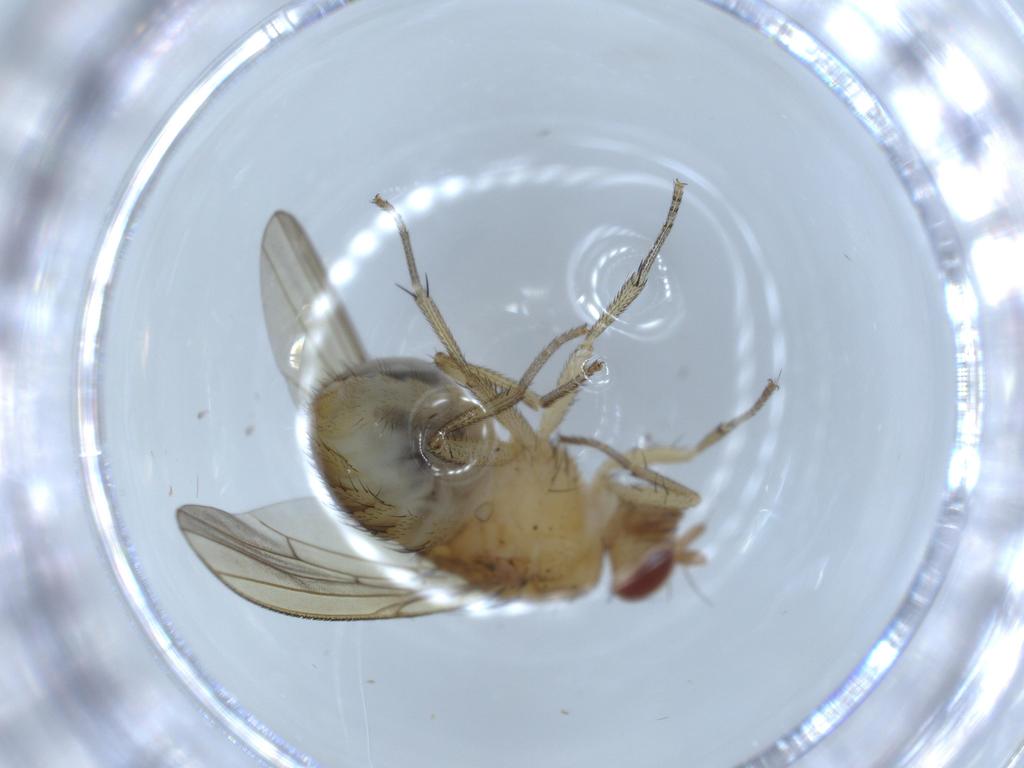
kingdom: Animalia
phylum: Arthropoda
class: Insecta
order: Diptera
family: Lauxaniidae
